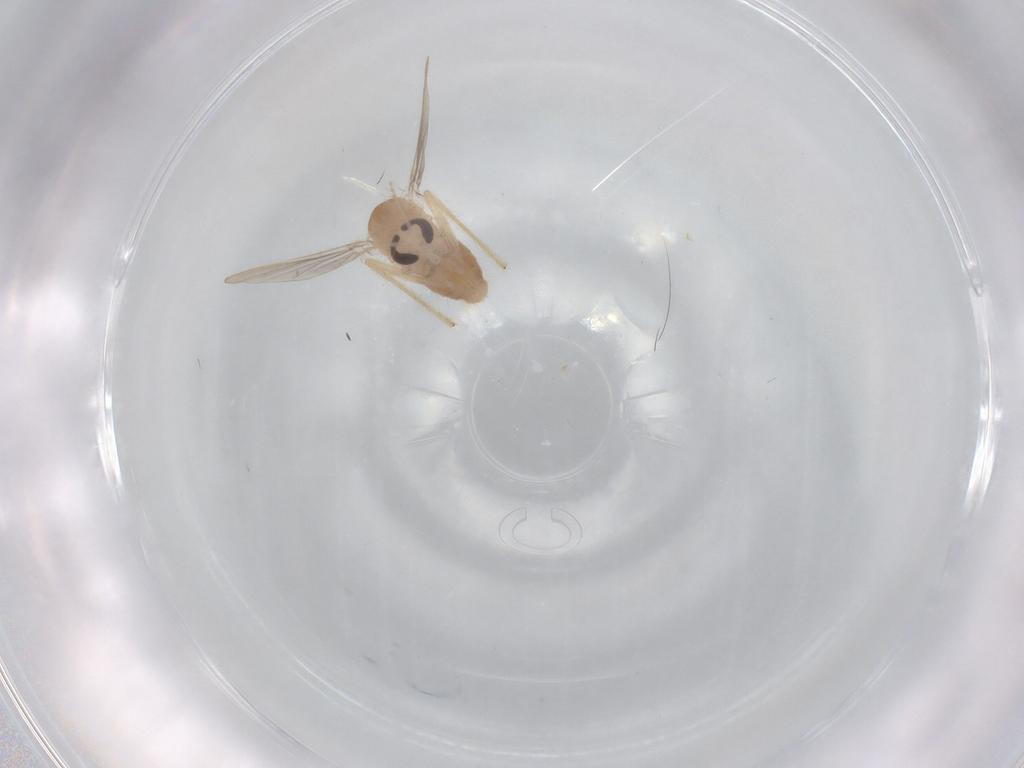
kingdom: Animalia
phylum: Arthropoda
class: Insecta
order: Diptera
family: Chironomidae
